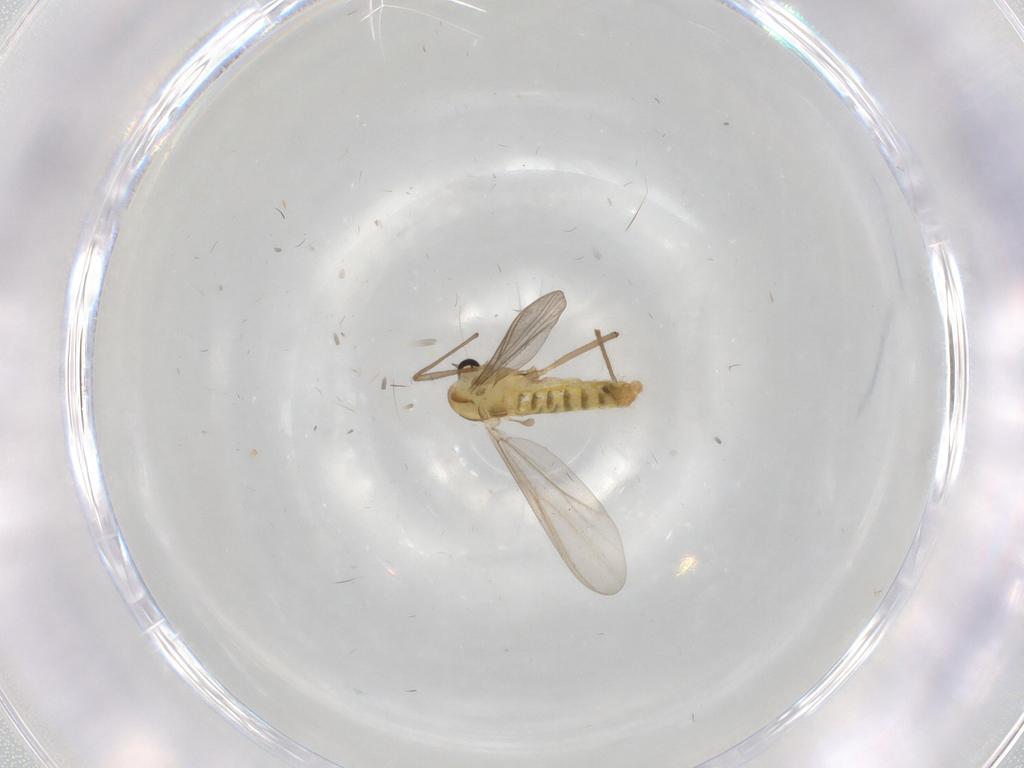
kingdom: Animalia
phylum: Arthropoda
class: Insecta
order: Diptera
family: Chironomidae
